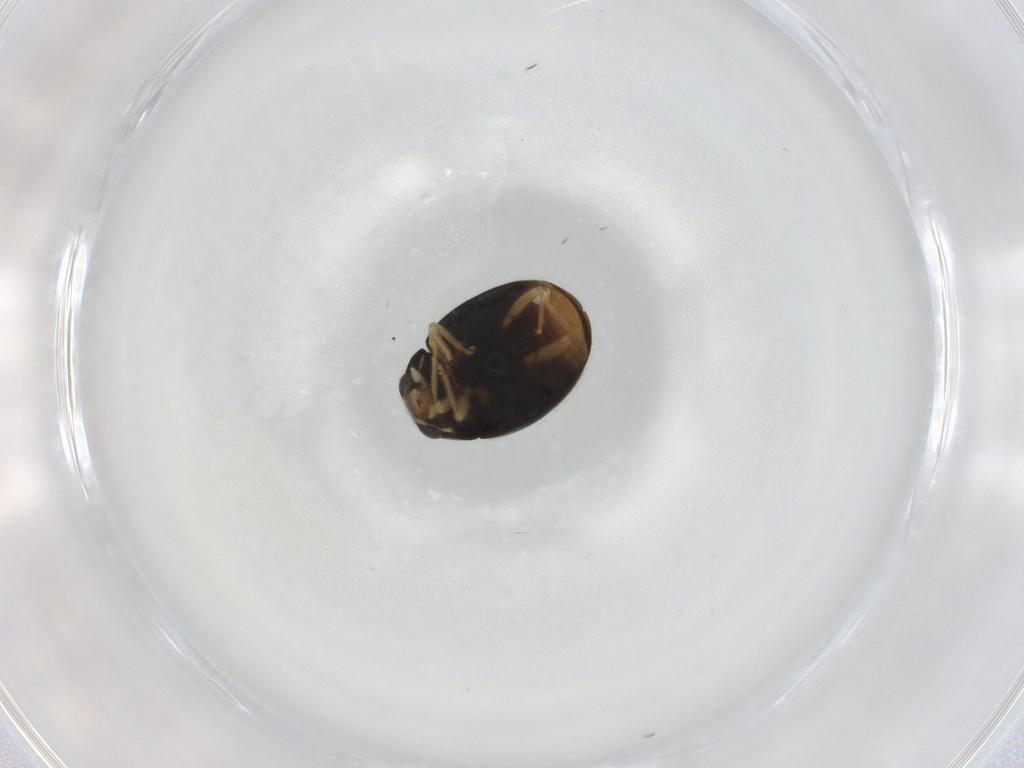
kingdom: Animalia
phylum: Arthropoda
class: Insecta
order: Coleoptera
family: Coccinellidae
